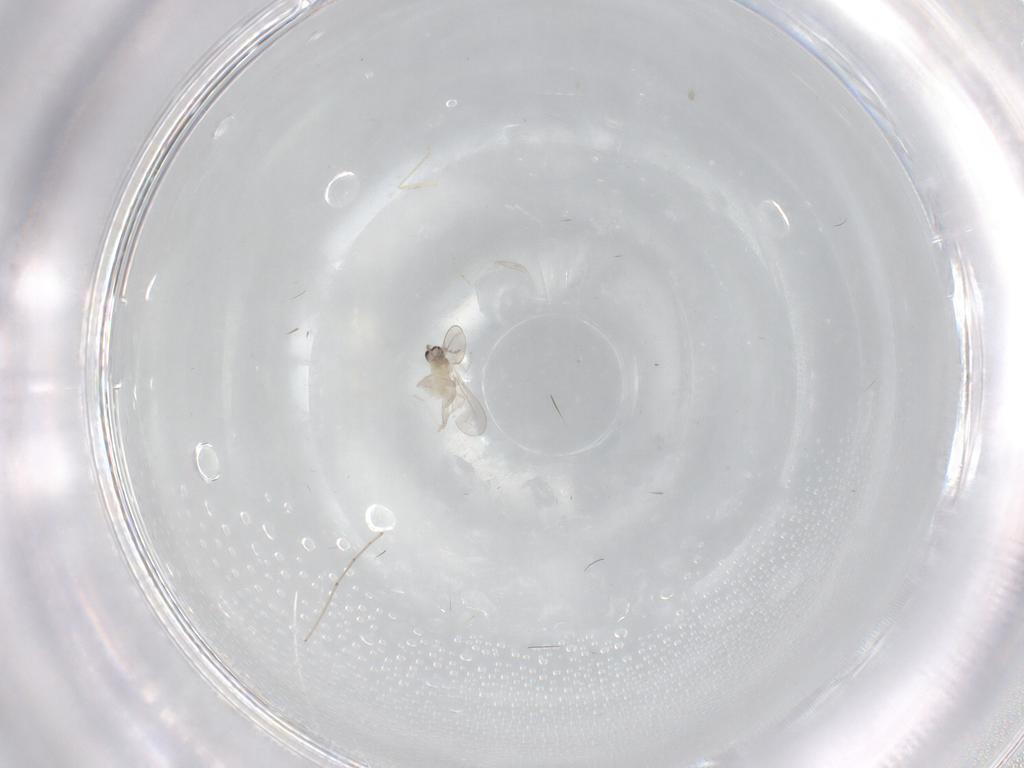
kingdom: Animalia
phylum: Arthropoda
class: Insecta
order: Diptera
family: Cecidomyiidae
